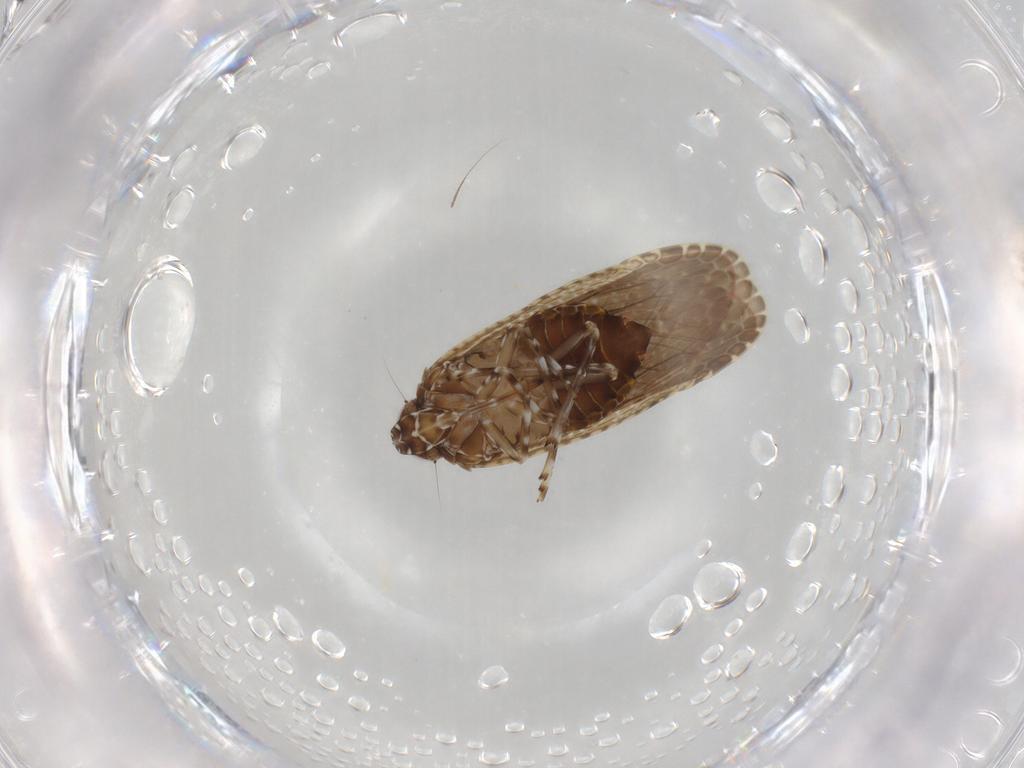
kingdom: Animalia
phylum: Arthropoda
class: Insecta
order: Hemiptera
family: Achilidae
